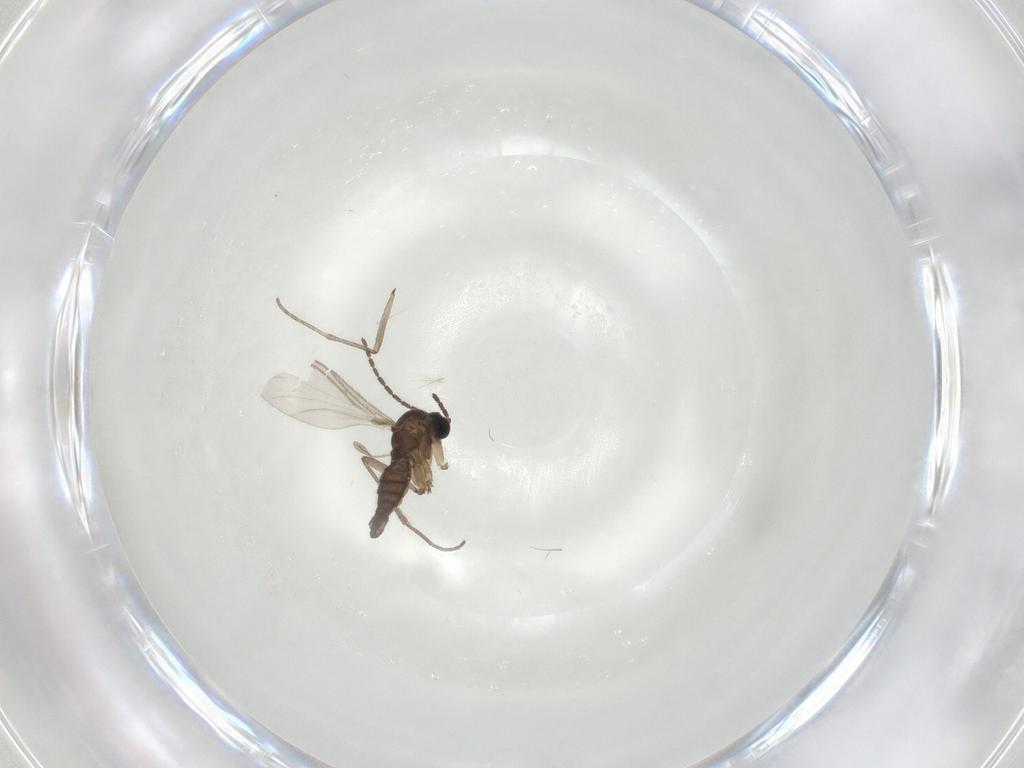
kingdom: Animalia
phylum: Arthropoda
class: Insecta
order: Diptera
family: Sciaridae
